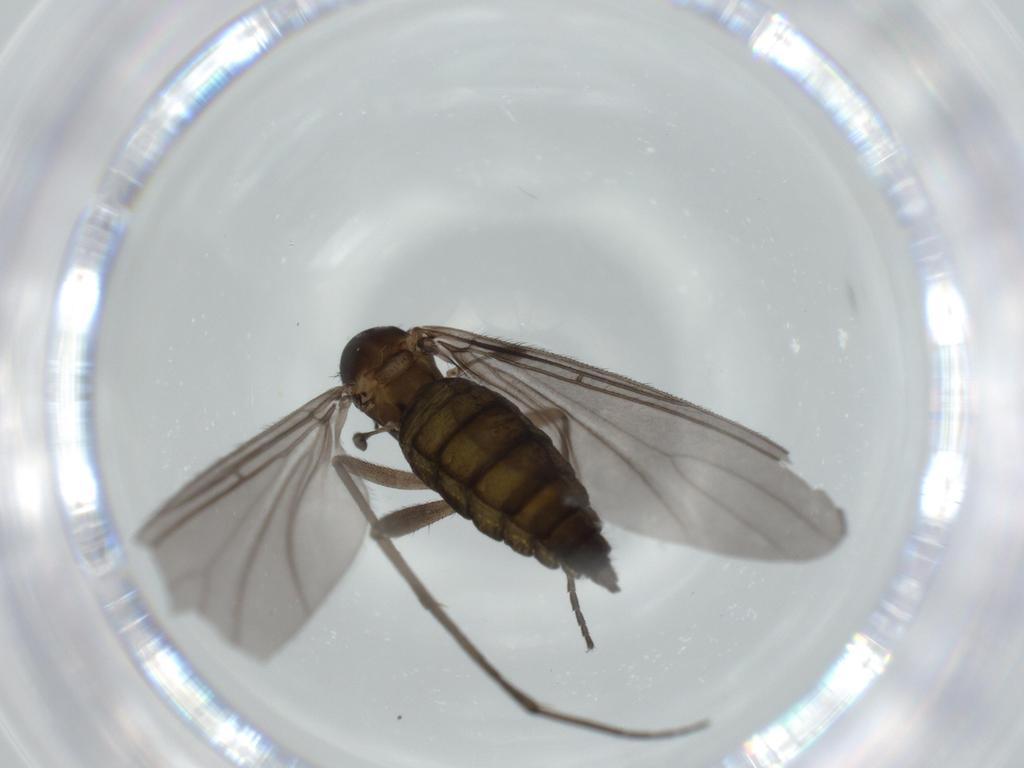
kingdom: Animalia
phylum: Arthropoda
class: Insecta
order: Diptera
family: Sciaridae
